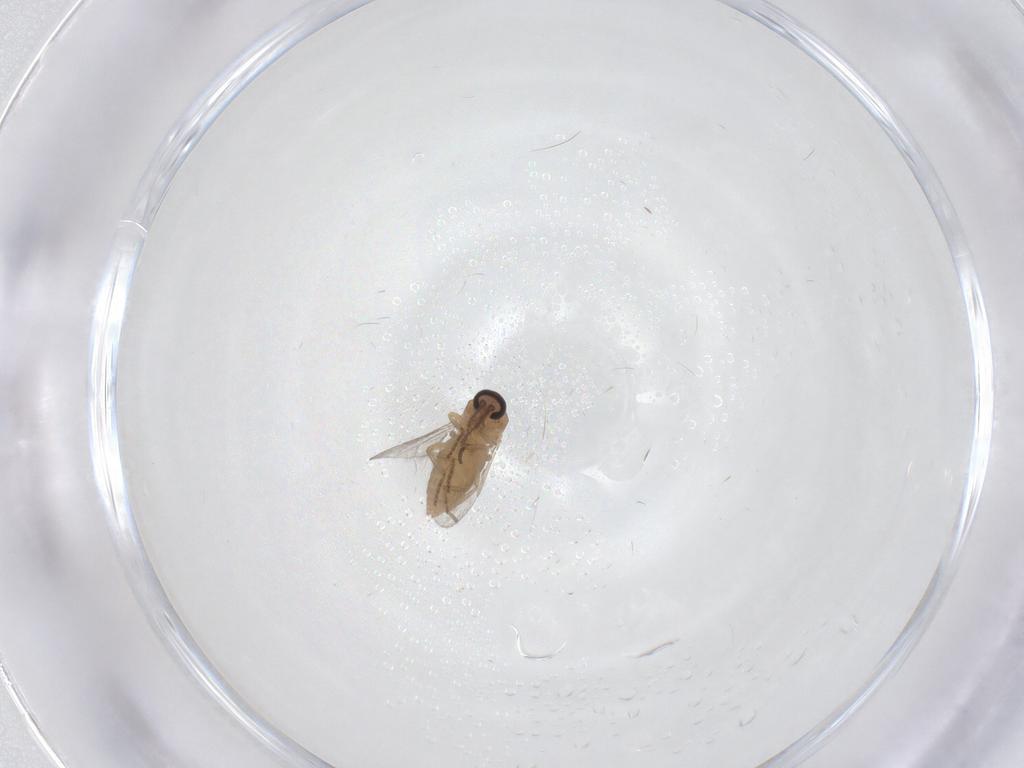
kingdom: Animalia
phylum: Arthropoda
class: Insecta
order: Diptera
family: Ceratopogonidae
